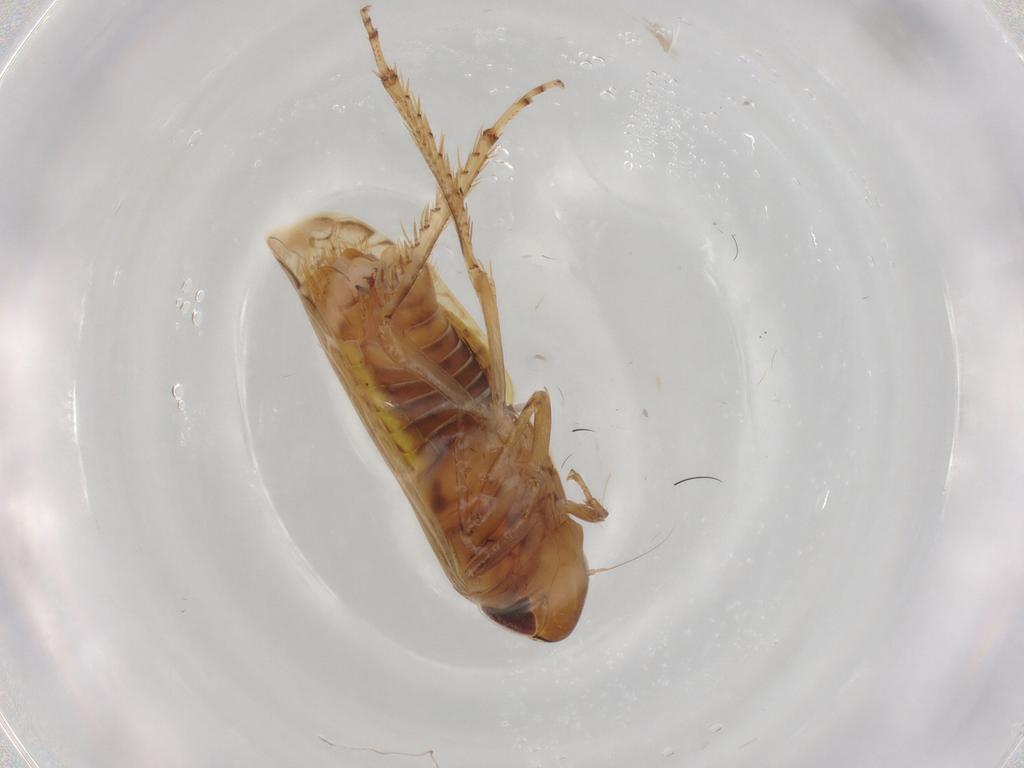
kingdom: Animalia
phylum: Arthropoda
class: Insecta
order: Hemiptera
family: Cicadellidae
